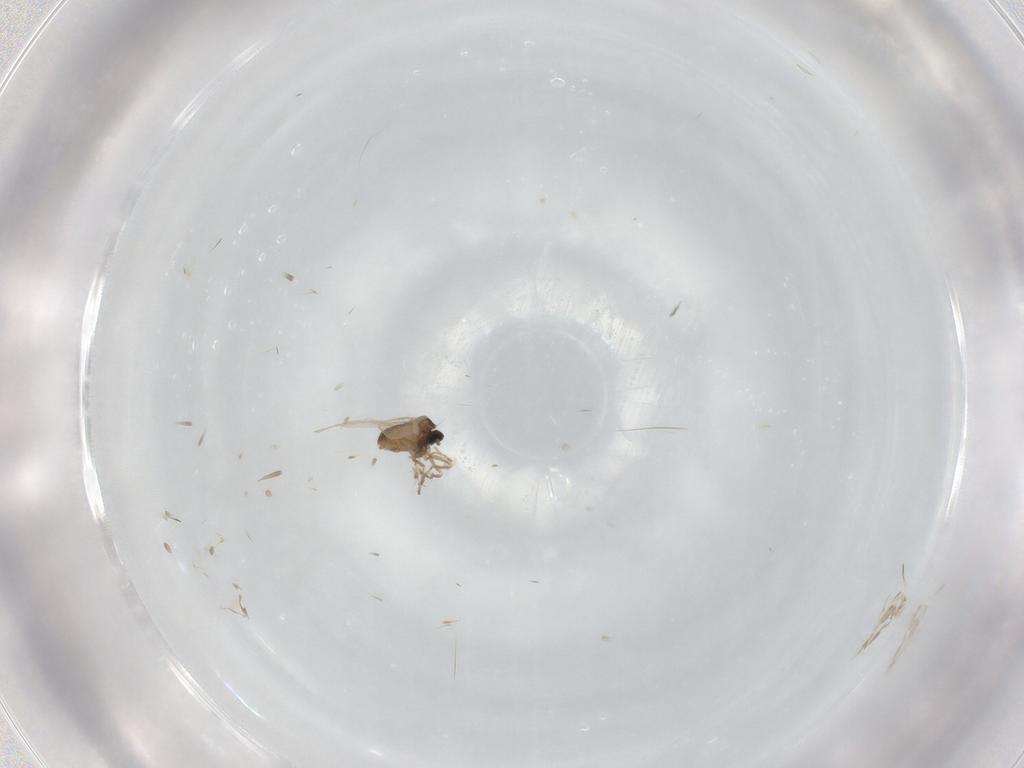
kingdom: Animalia
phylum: Arthropoda
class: Insecta
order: Diptera
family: Cecidomyiidae
